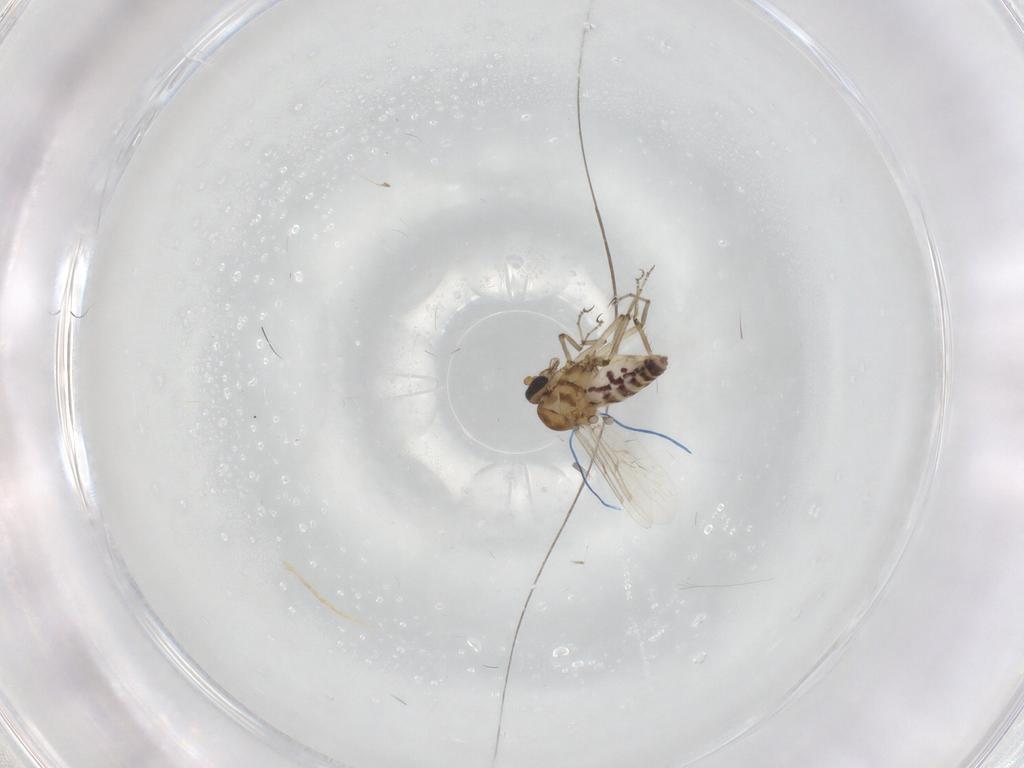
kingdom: Animalia
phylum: Arthropoda
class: Insecta
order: Diptera
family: Ceratopogonidae
